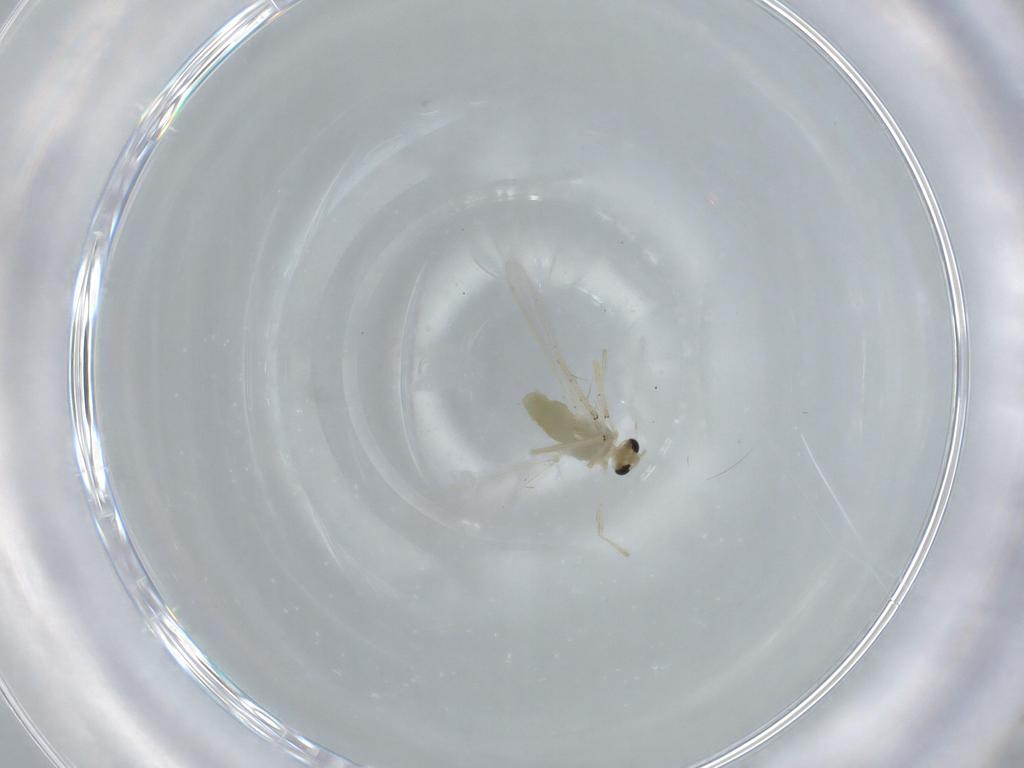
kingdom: Animalia
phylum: Arthropoda
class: Insecta
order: Diptera
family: Chironomidae
